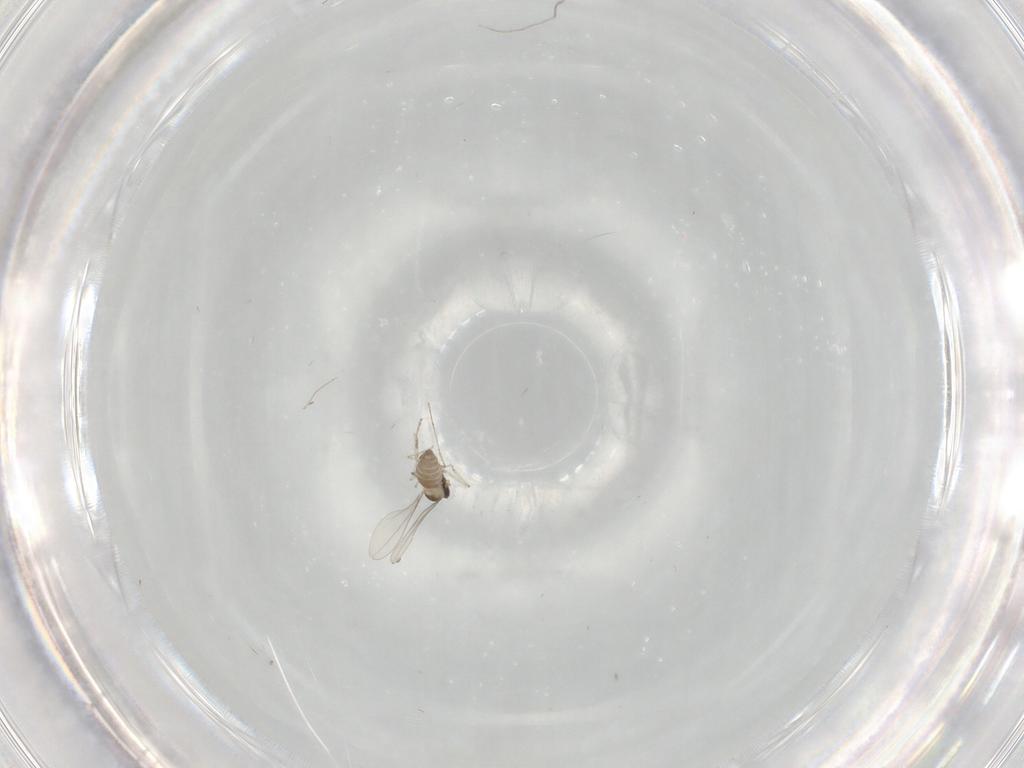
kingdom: Animalia
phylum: Arthropoda
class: Insecta
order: Diptera
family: Cecidomyiidae
